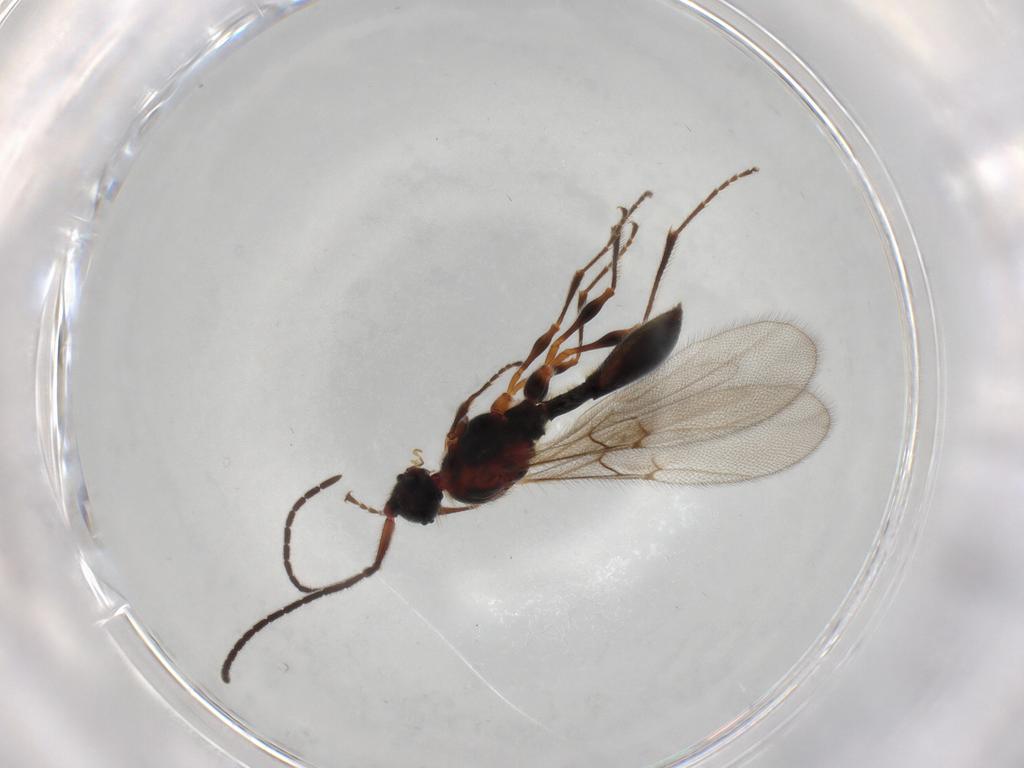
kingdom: Animalia
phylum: Arthropoda
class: Insecta
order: Hymenoptera
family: Diapriidae
